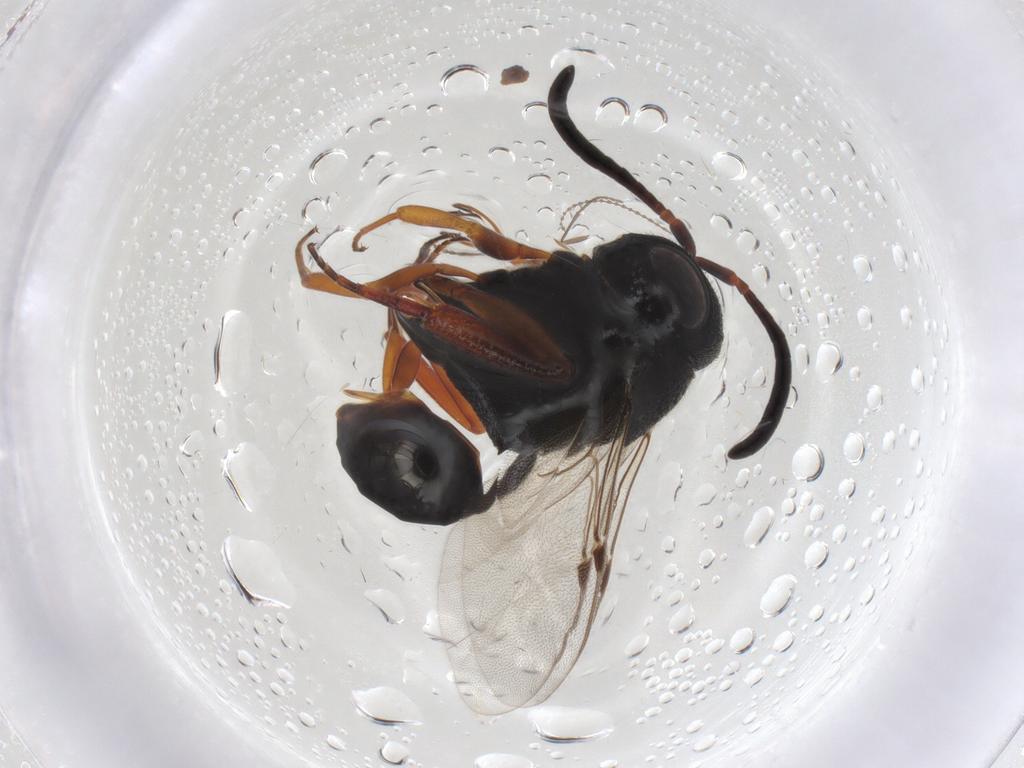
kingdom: Animalia
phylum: Arthropoda
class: Insecta
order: Hymenoptera
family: Evaniidae
